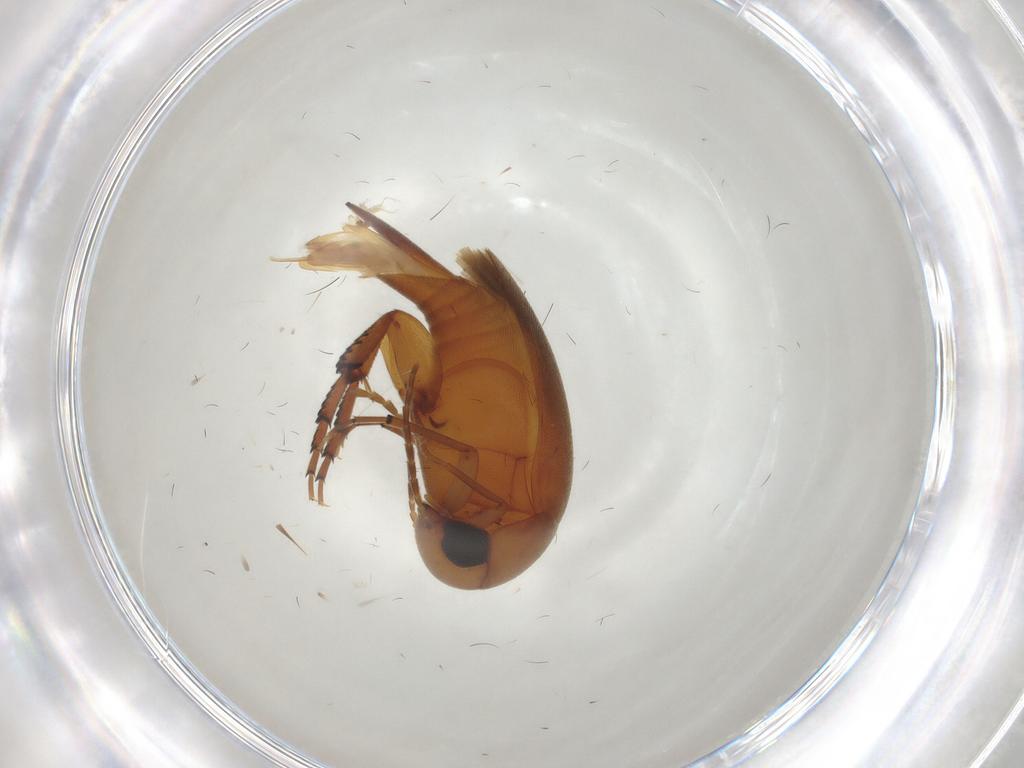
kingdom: Animalia
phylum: Arthropoda
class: Insecta
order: Coleoptera
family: Mordellidae
